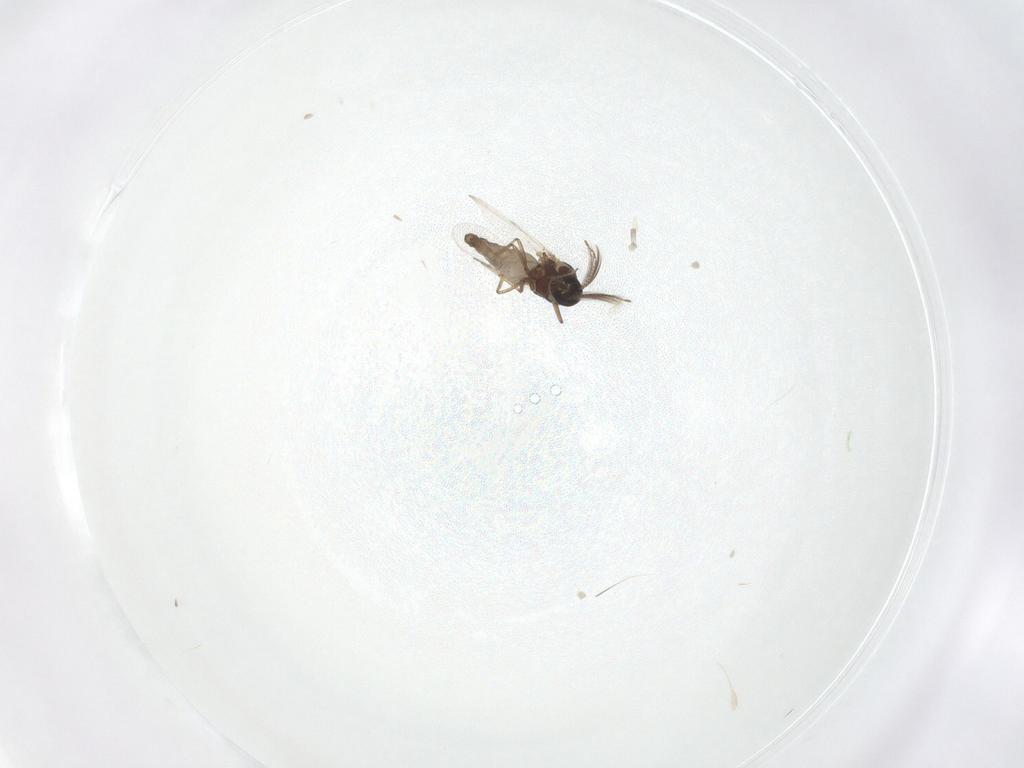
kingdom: Animalia
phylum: Arthropoda
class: Insecta
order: Diptera
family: Ceratopogonidae
